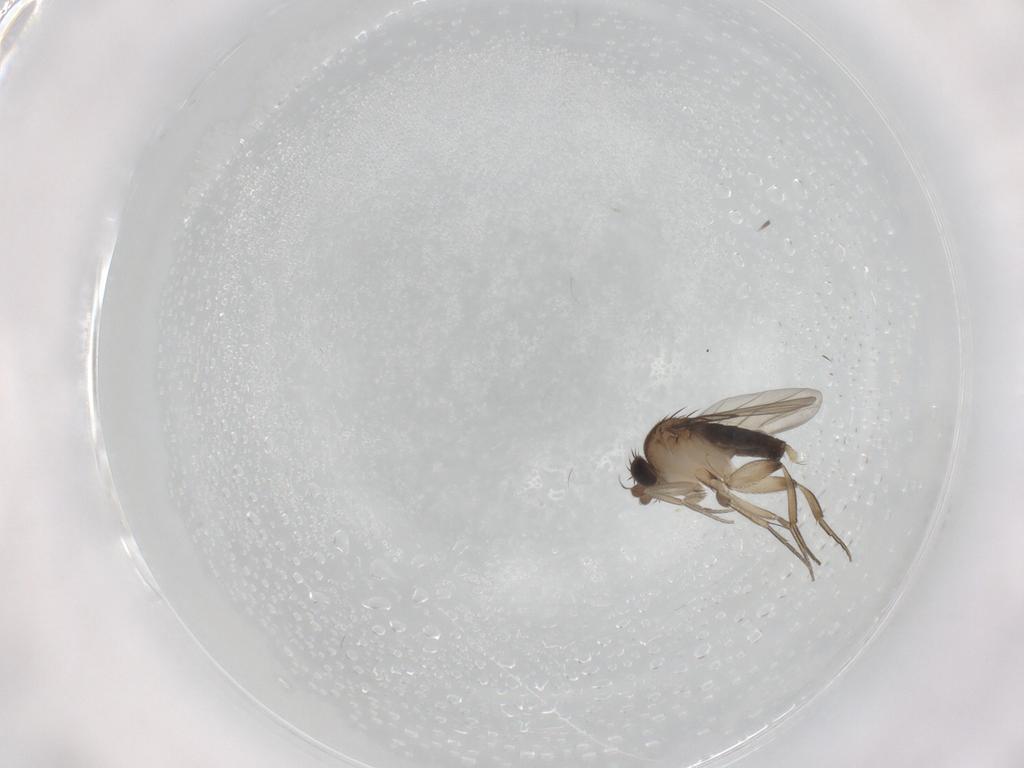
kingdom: Animalia
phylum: Arthropoda
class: Insecta
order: Diptera
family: Phoridae
